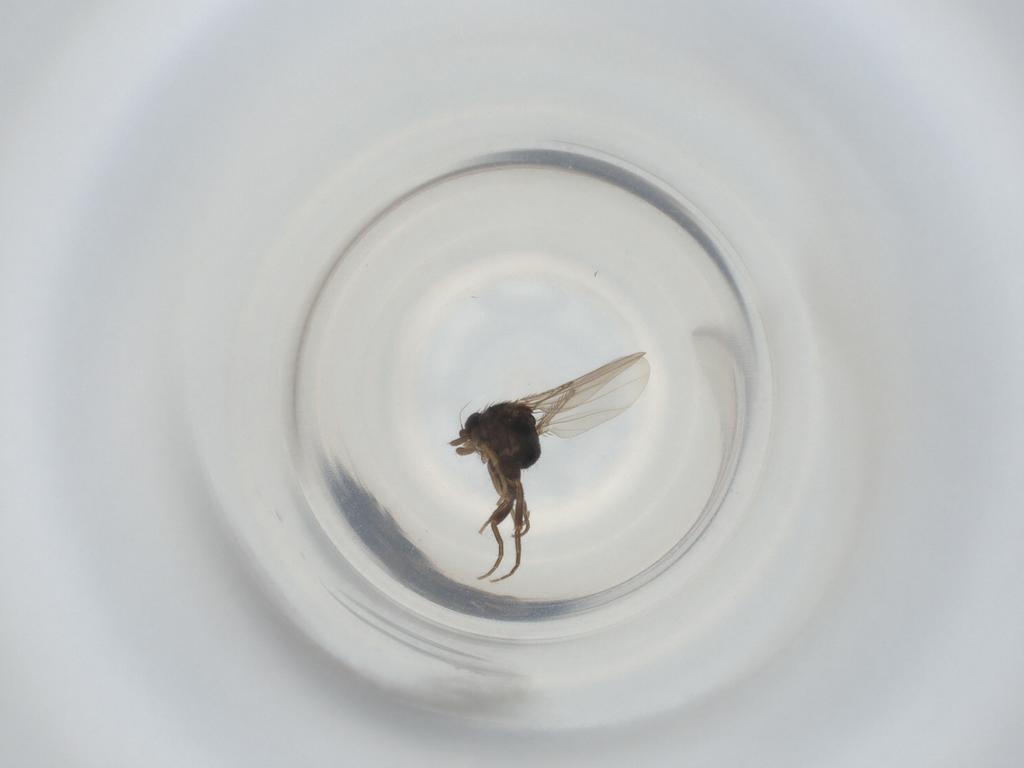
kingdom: Animalia
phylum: Arthropoda
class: Insecta
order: Diptera
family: Phoridae
